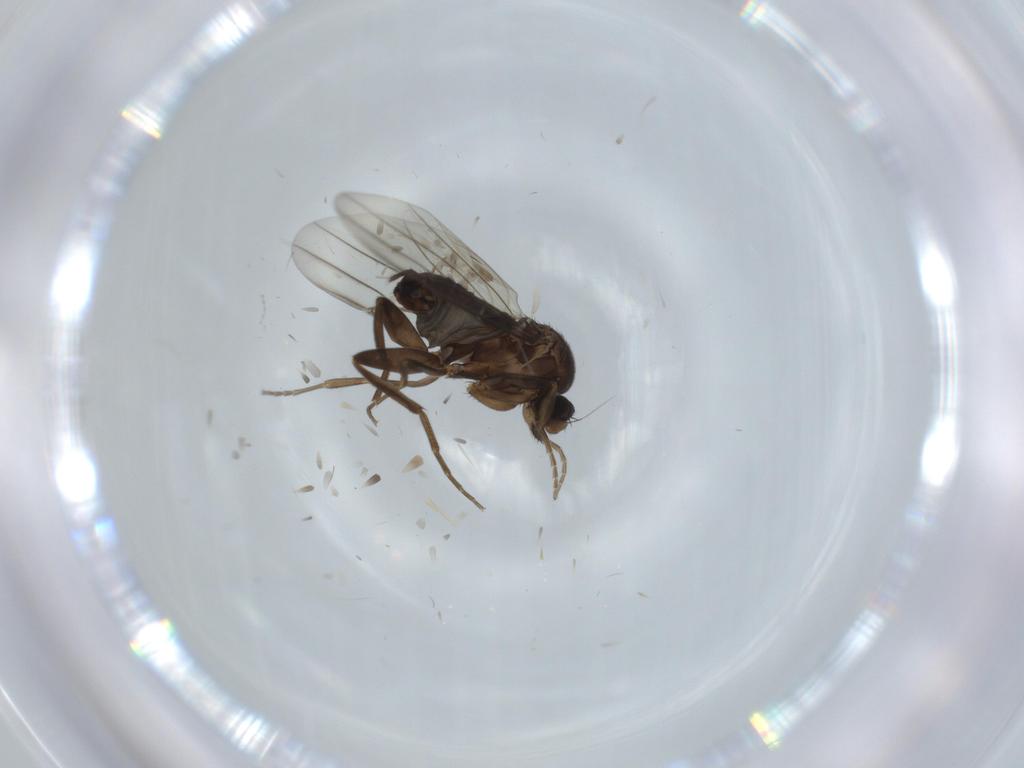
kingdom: Animalia
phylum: Arthropoda
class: Insecta
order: Diptera
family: Cecidomyiidae
